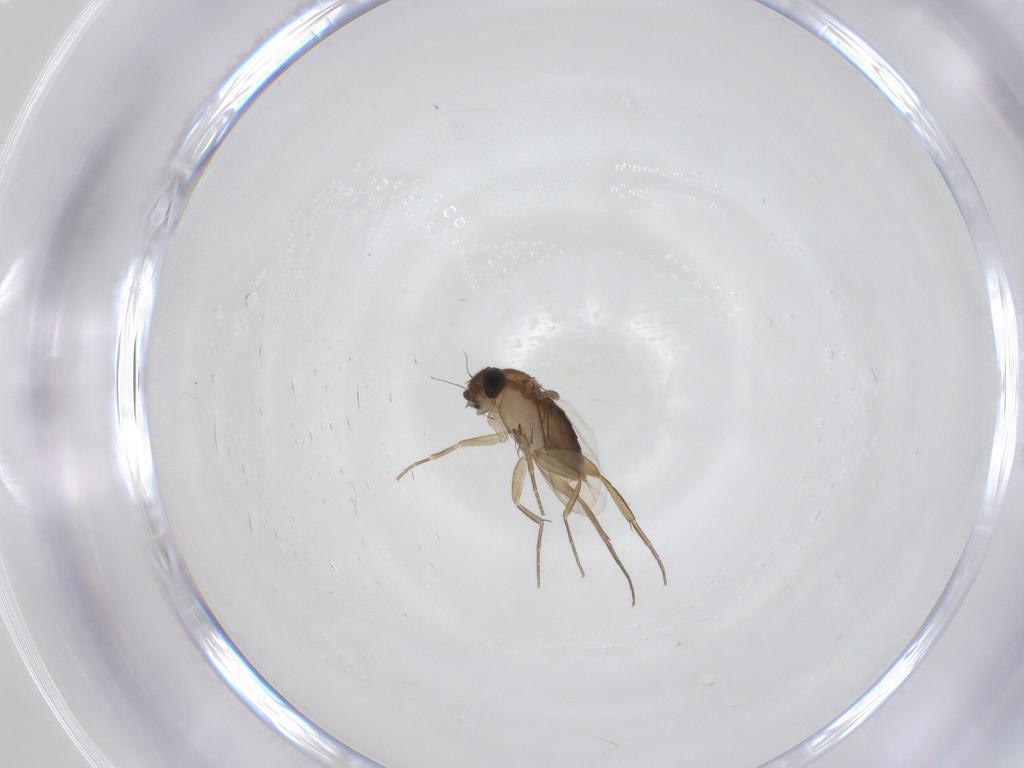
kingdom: Animalia
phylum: Arthropoda
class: Insecta
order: Diptera
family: Phoridae
